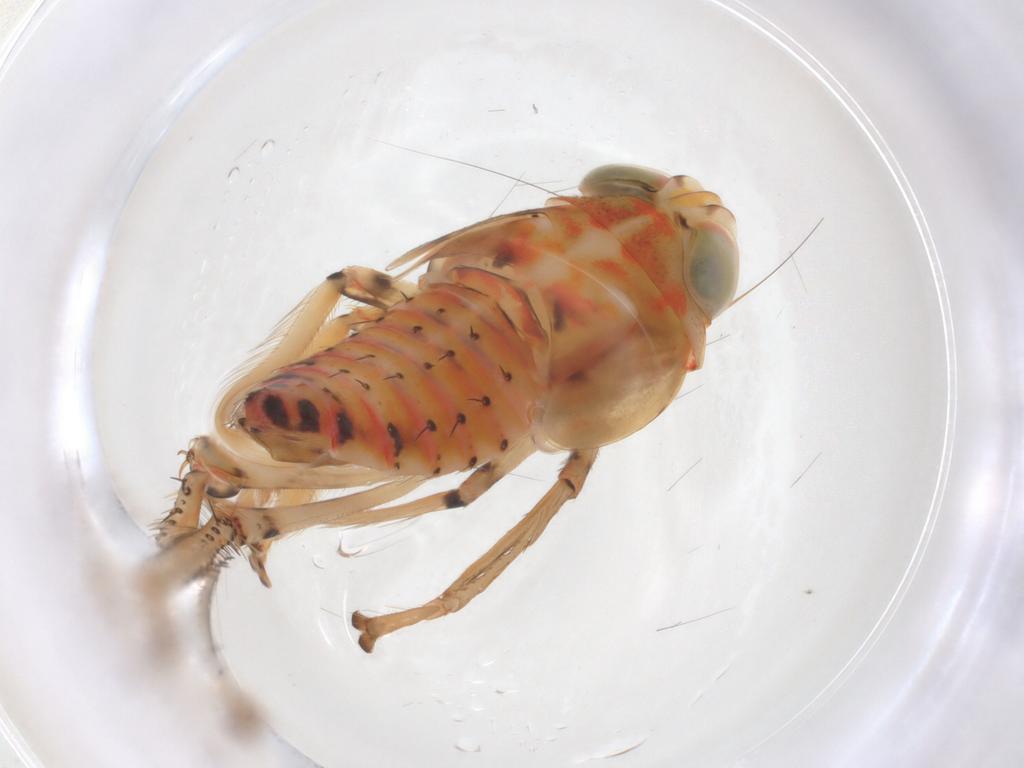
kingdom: Animalia
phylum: Arthropoda
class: Insecta
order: Hemiptera
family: Cicadellidae
